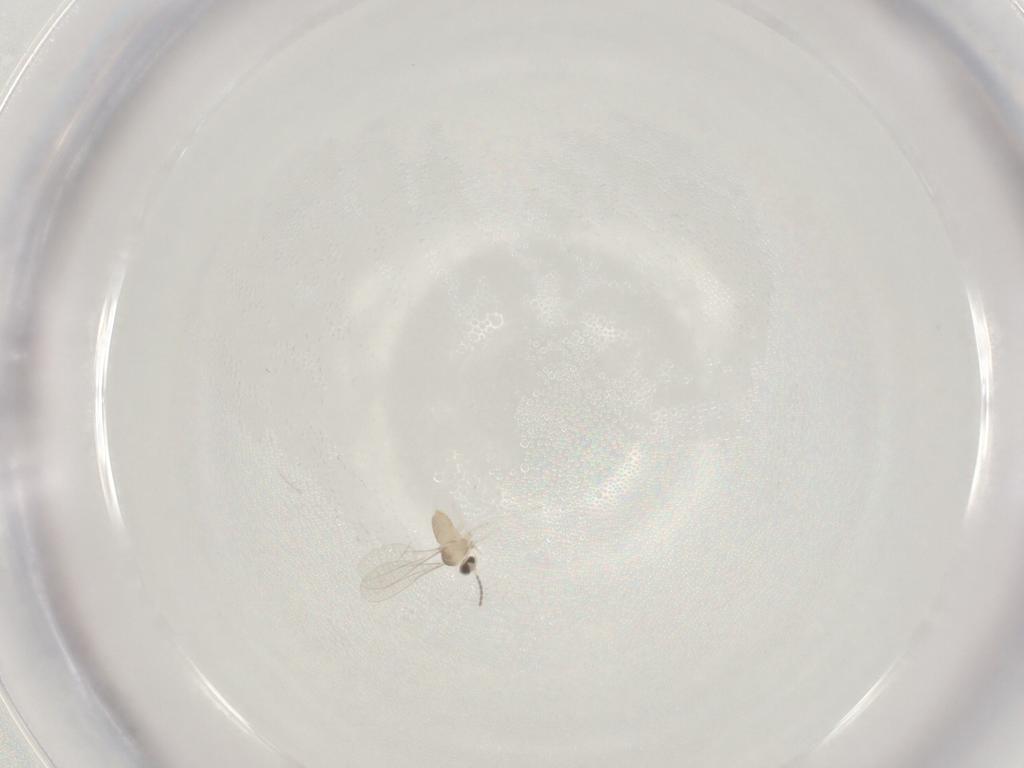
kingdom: Animalia
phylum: Arthropoda
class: Insecta
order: Diptera
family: Cecidomyiidae
